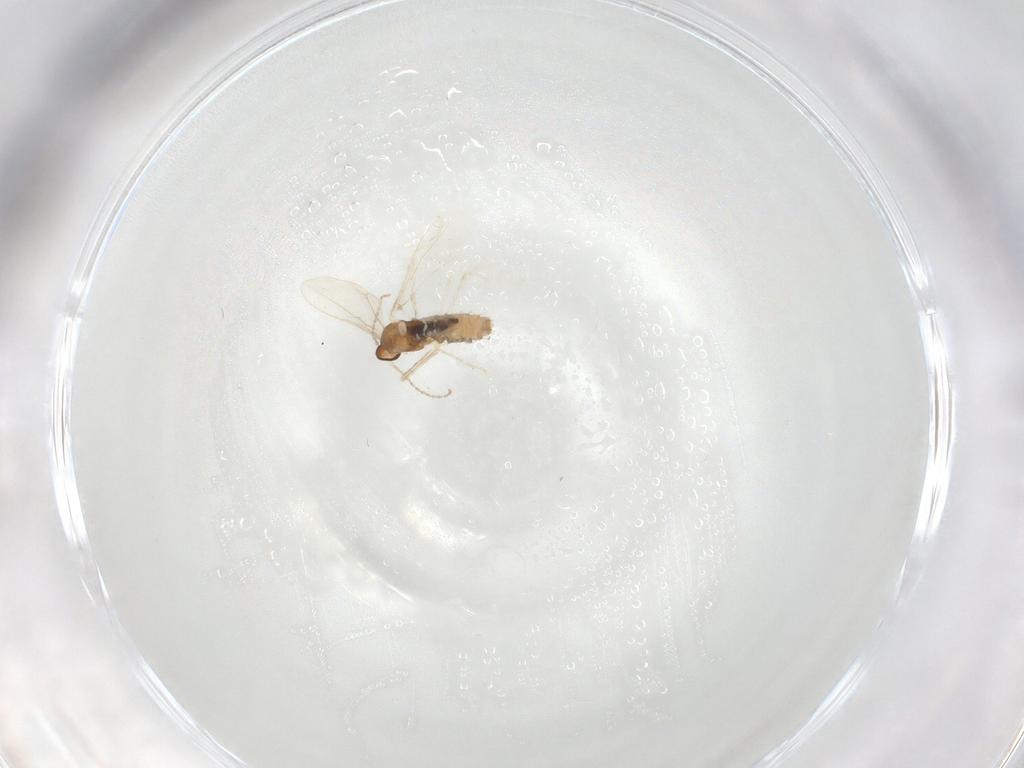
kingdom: Animalia
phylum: Arthropoda
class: Insecta
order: Diptera
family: Cecidomyiidae
